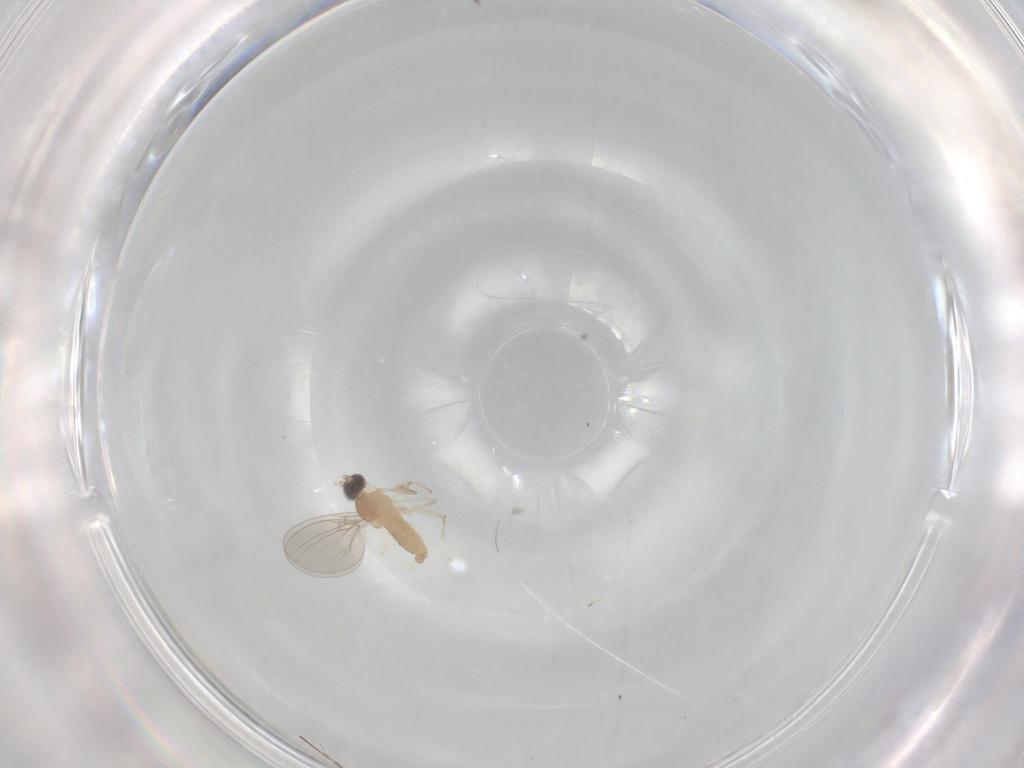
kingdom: Animalia
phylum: Arthropoda
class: Insecta
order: Diptera
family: Cecidomyiidae
